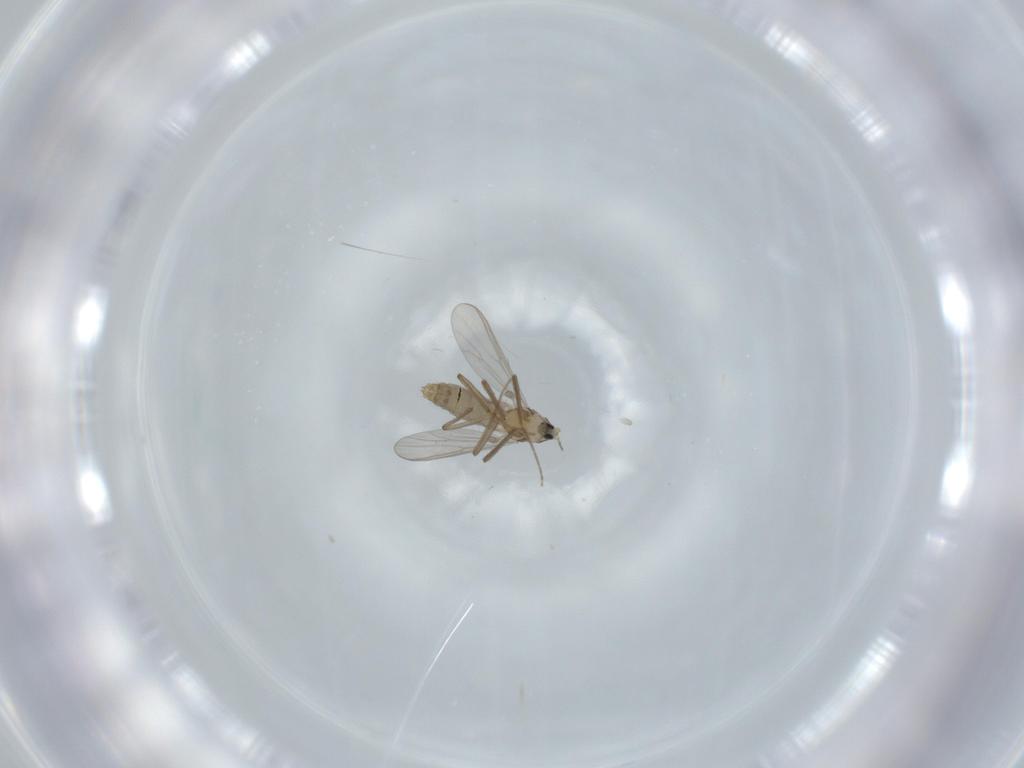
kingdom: Animalia
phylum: Arthropoda
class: Insecta
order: Diptera
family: Chironomidae
